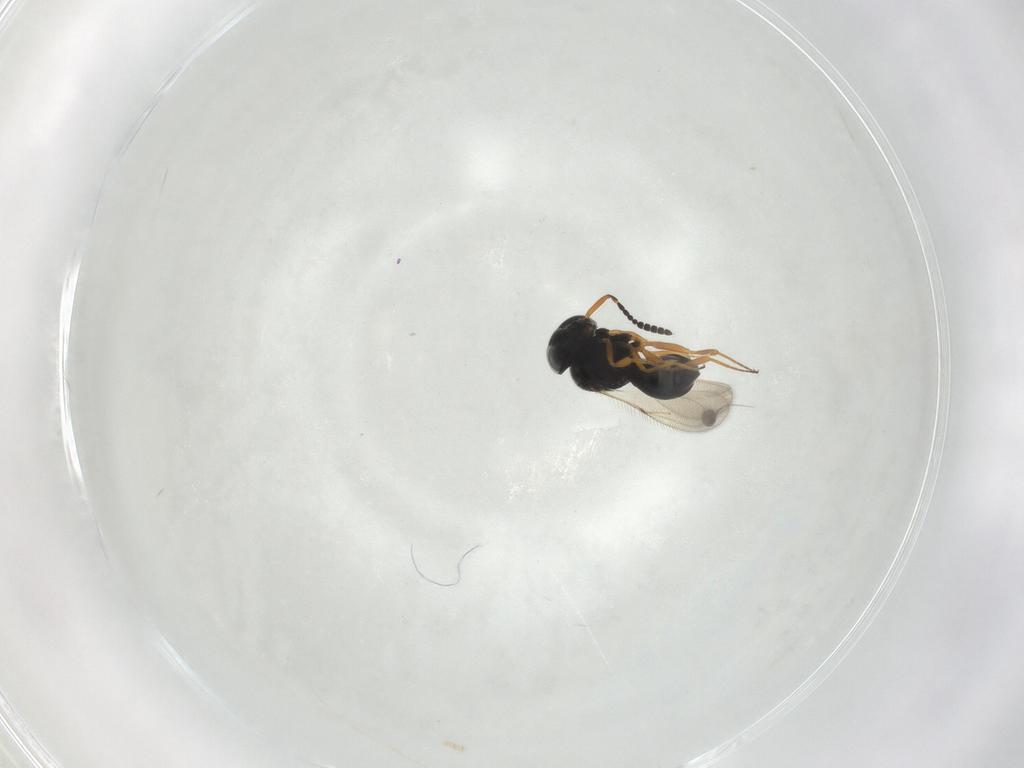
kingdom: Animalia
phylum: Arthropoda
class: Insecta
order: Hymenoptera
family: Scelionidae
